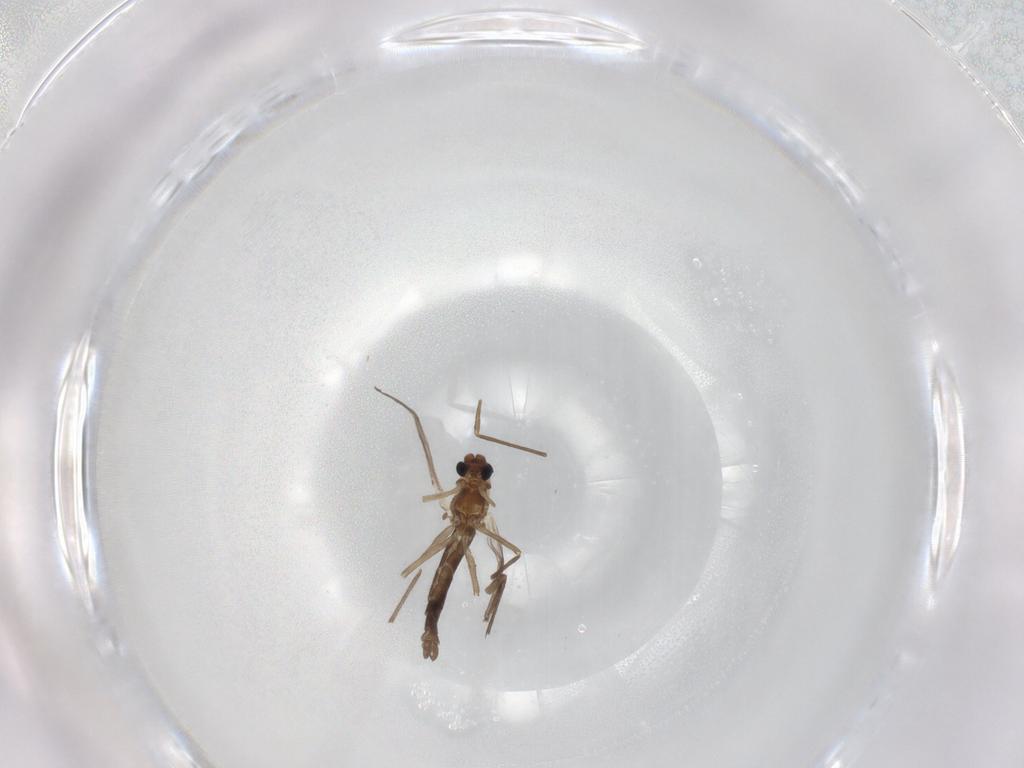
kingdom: Animalia
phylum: Arthropoda
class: Insecta
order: Diptera
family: Chironomidae
